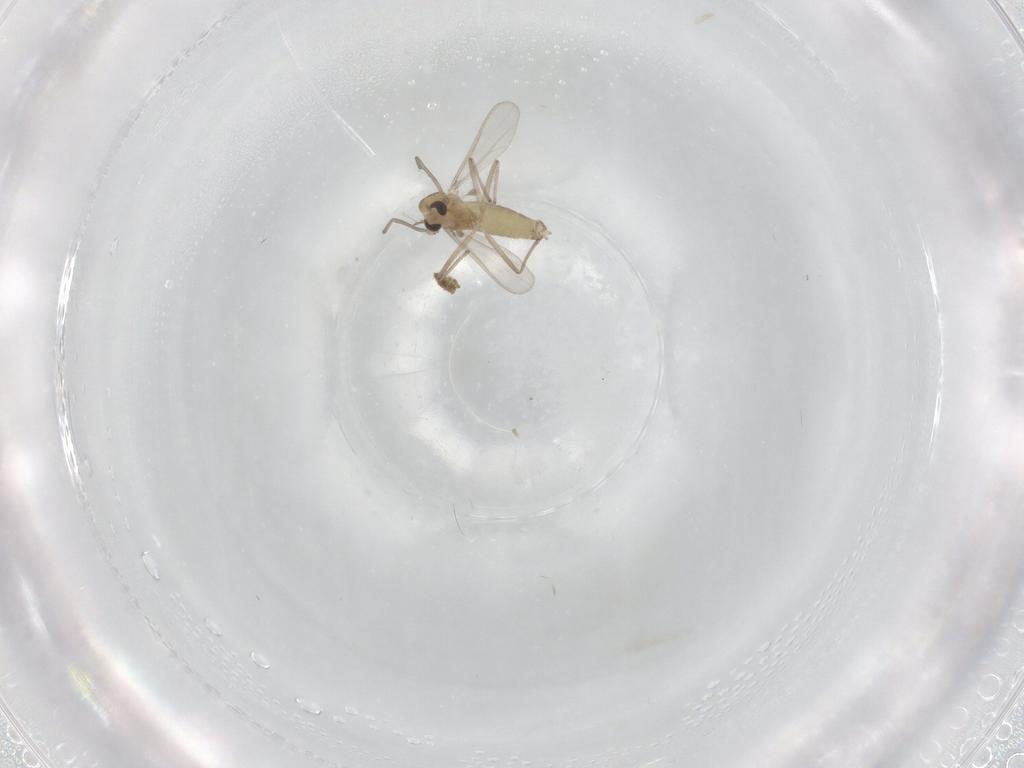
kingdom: Animalia
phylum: Arthropoda
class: Insecta
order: Diptera
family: Chironomidae
